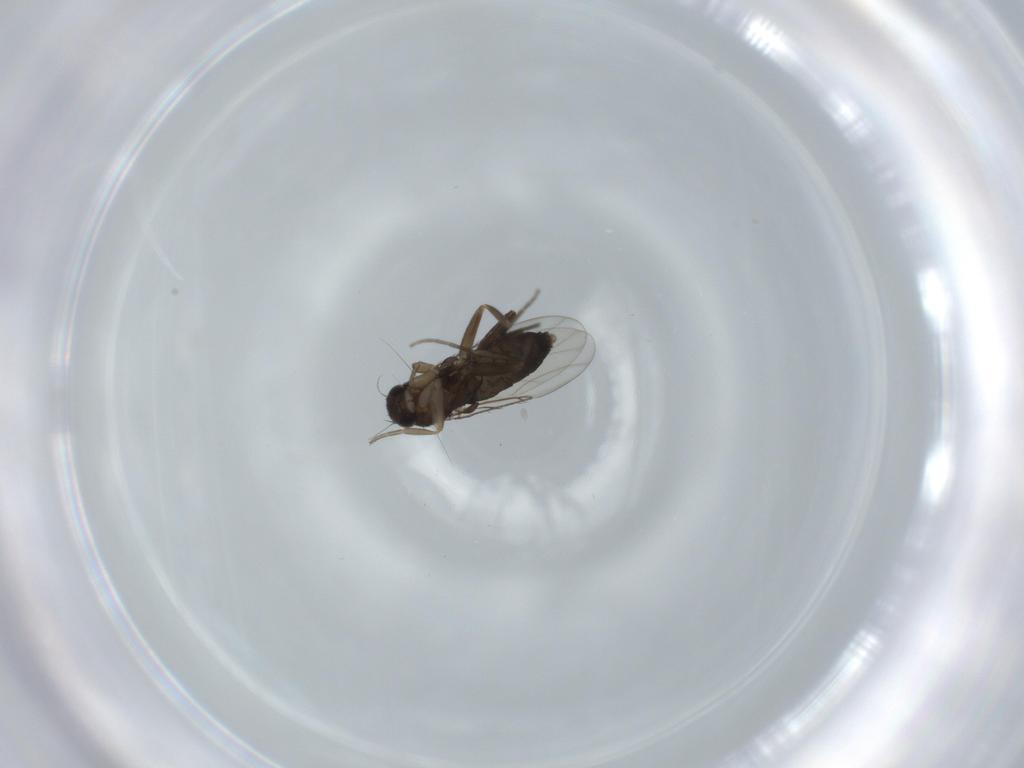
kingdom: Animalia
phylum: Arthropoda
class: Insecta
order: Diptera
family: Phoridae
